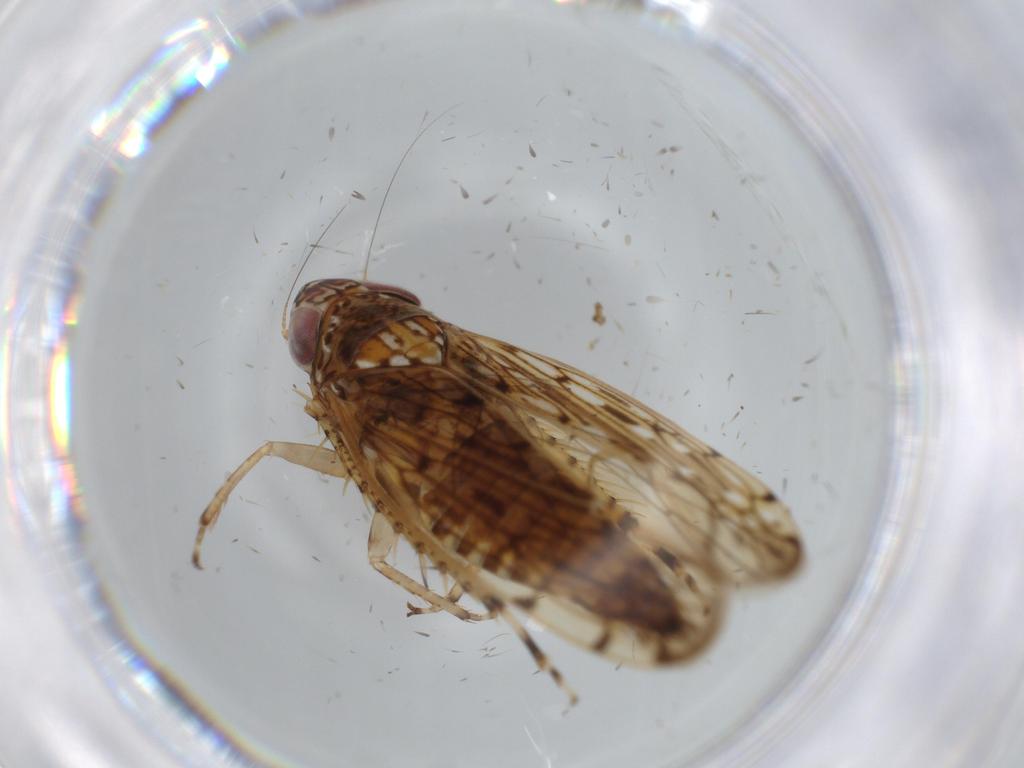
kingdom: Animalia
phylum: Arthropoda
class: Insecta
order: Hemiptera
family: Cicadellidae
